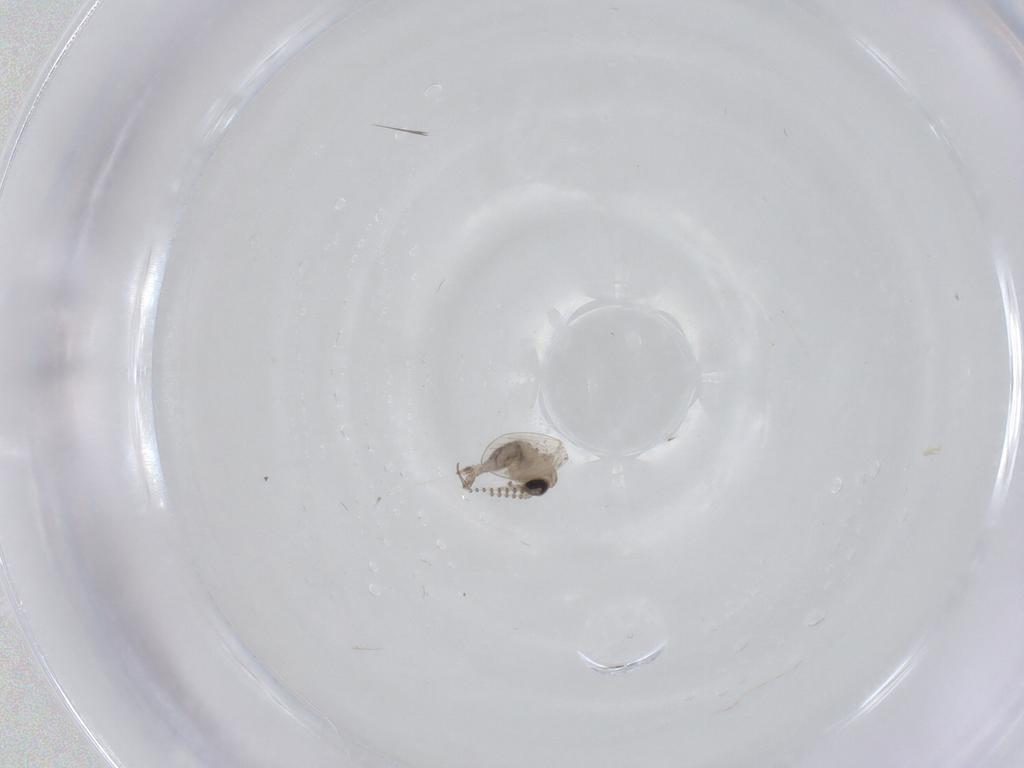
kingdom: Animalia
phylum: Arthropoda
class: Insecta
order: Diptera
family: Psychodidae
